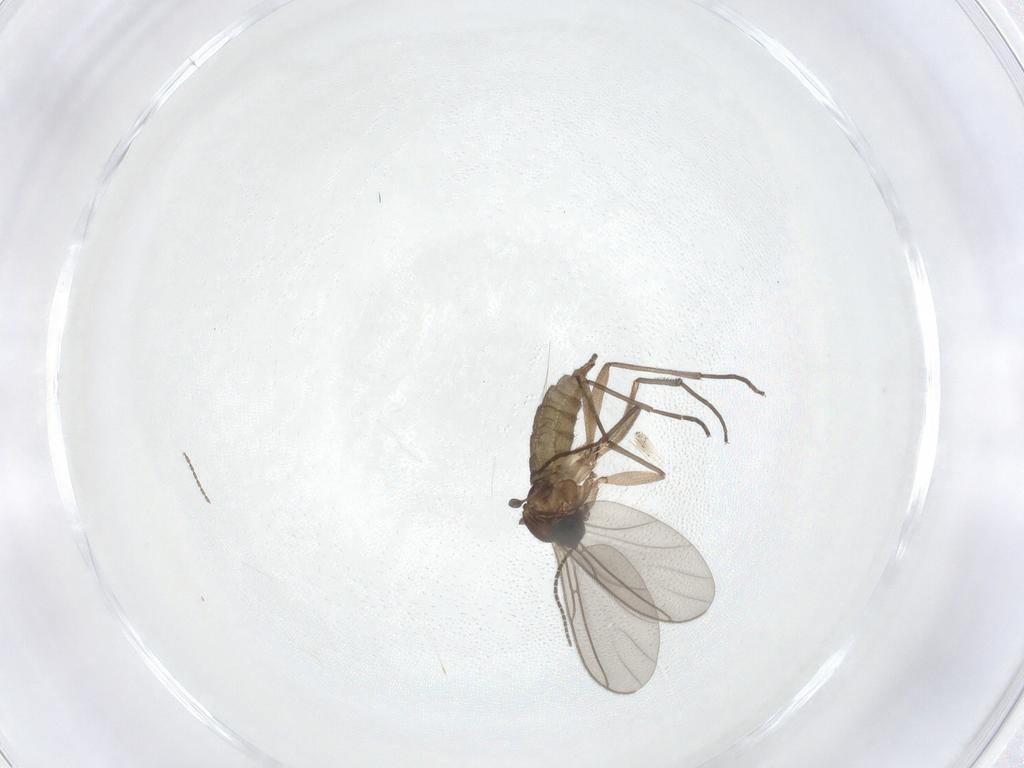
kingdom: Animalia
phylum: Arthropoda
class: Insecta
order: Diptera
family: Sciaridae
